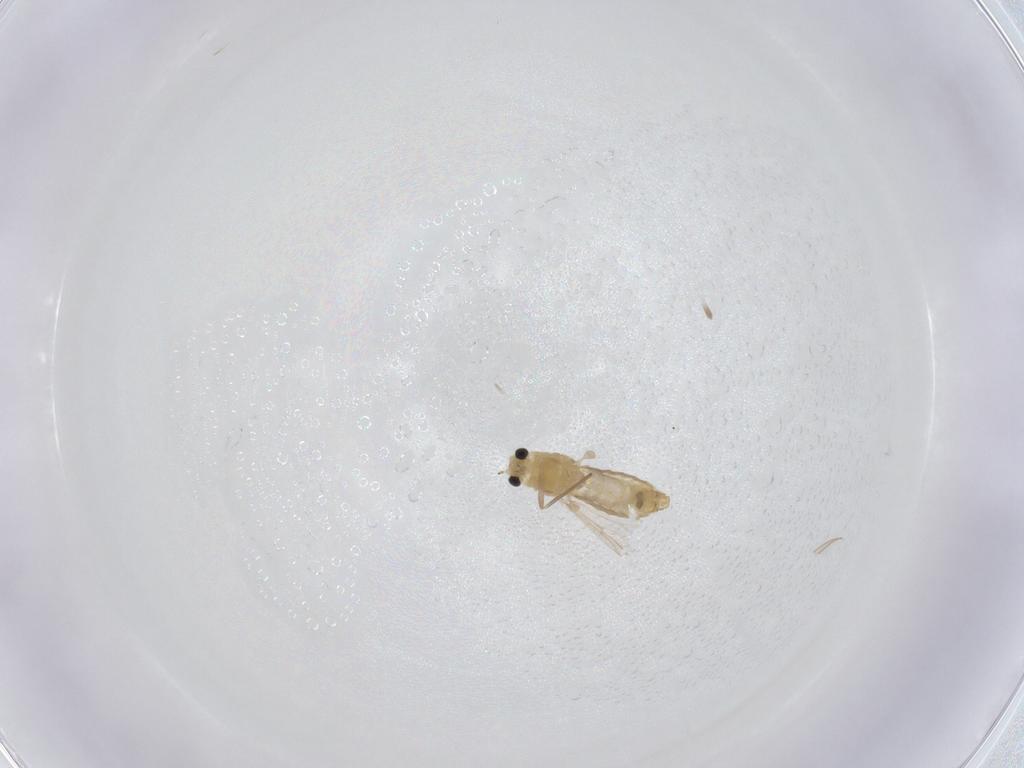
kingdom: Animalia
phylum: Arthropoda
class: Insecta
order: Diptera
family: Chironomidae
